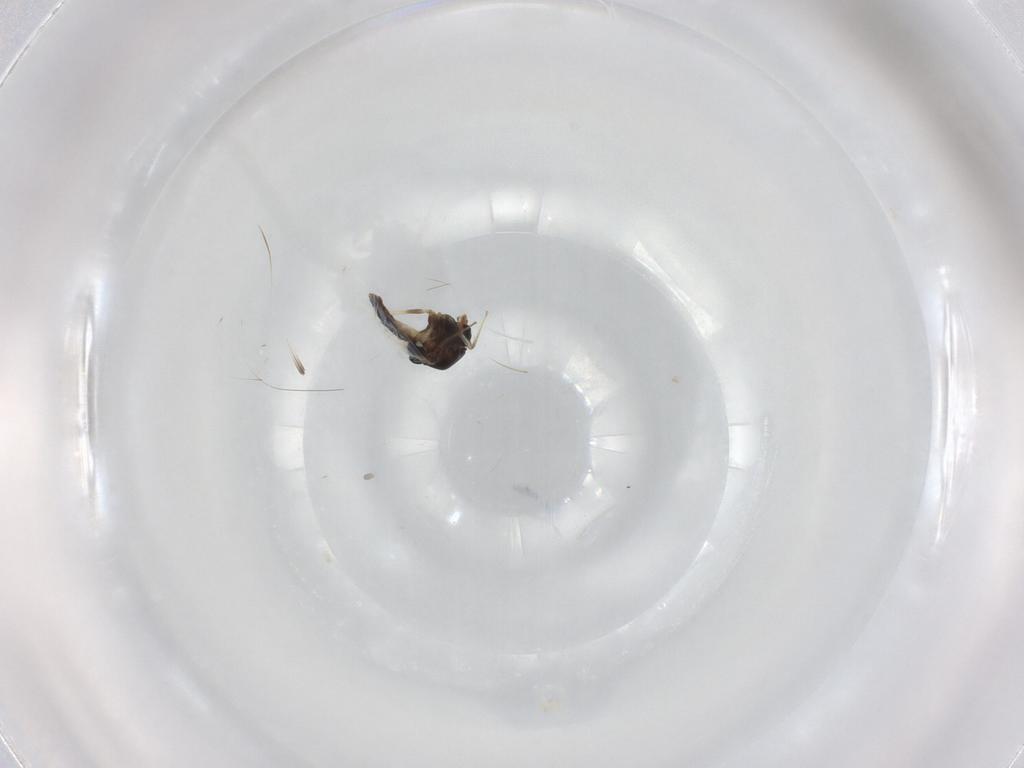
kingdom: Animalia
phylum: Arthropoda
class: Insecta
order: Diptera
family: Chironomidae
